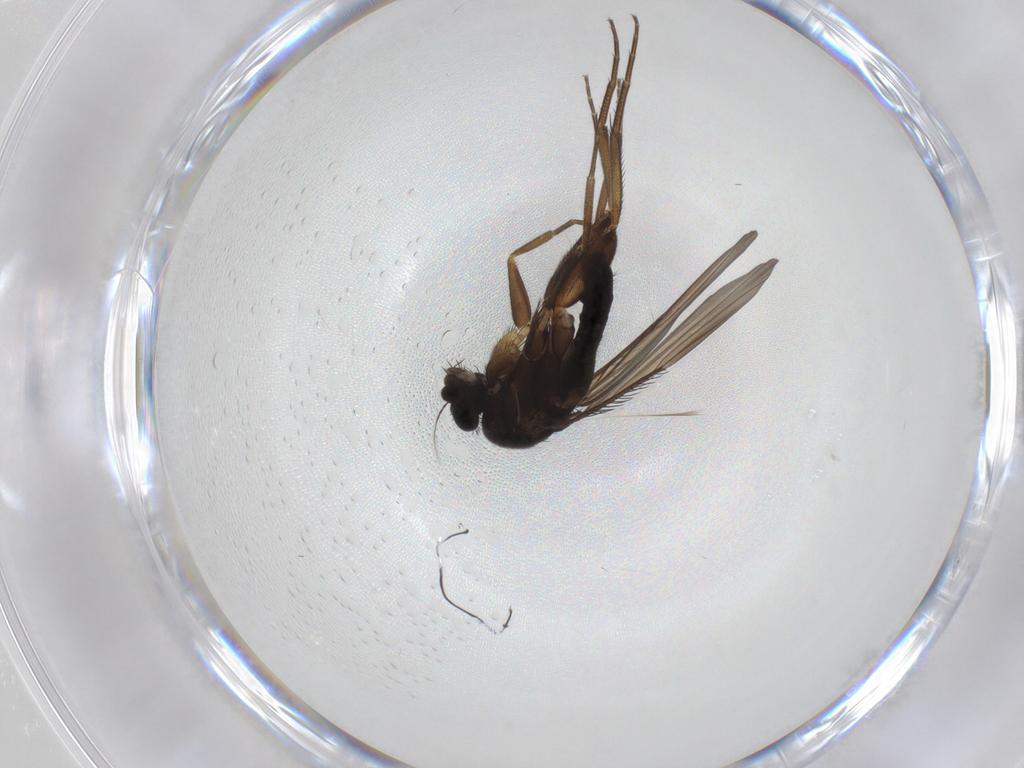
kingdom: Animalia
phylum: Arthropoda
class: Insecta
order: Diptera
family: Phoridae
